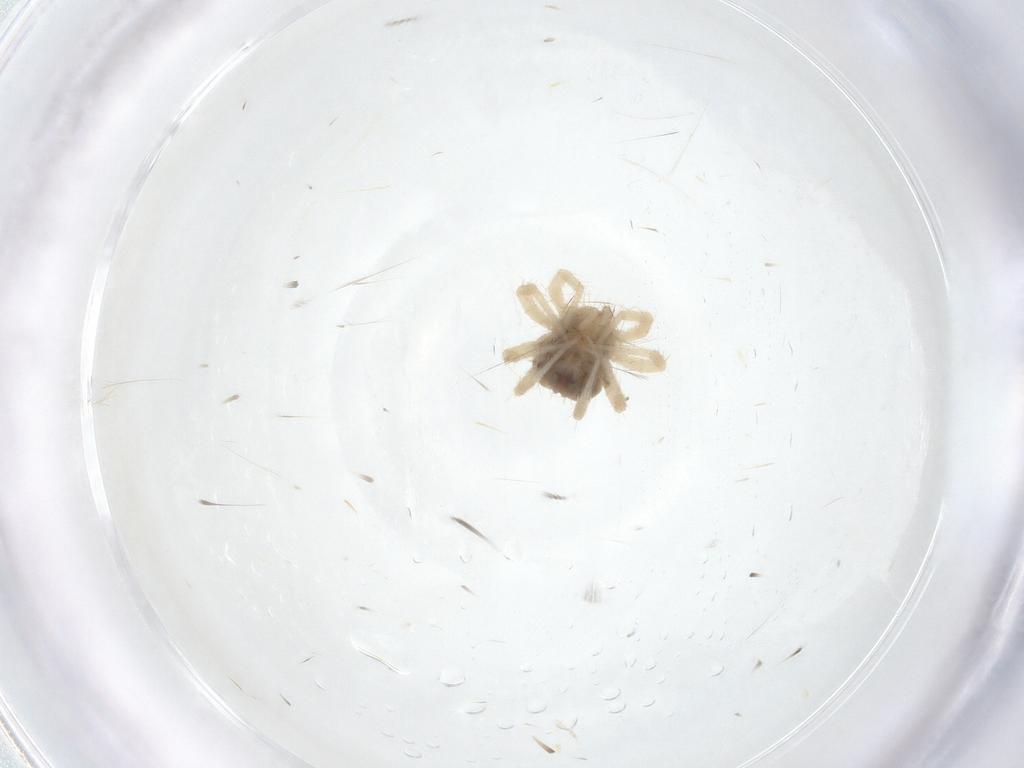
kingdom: Animalia
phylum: Arthropoda
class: Arachnida
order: Trombidiformes
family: Anystidae
